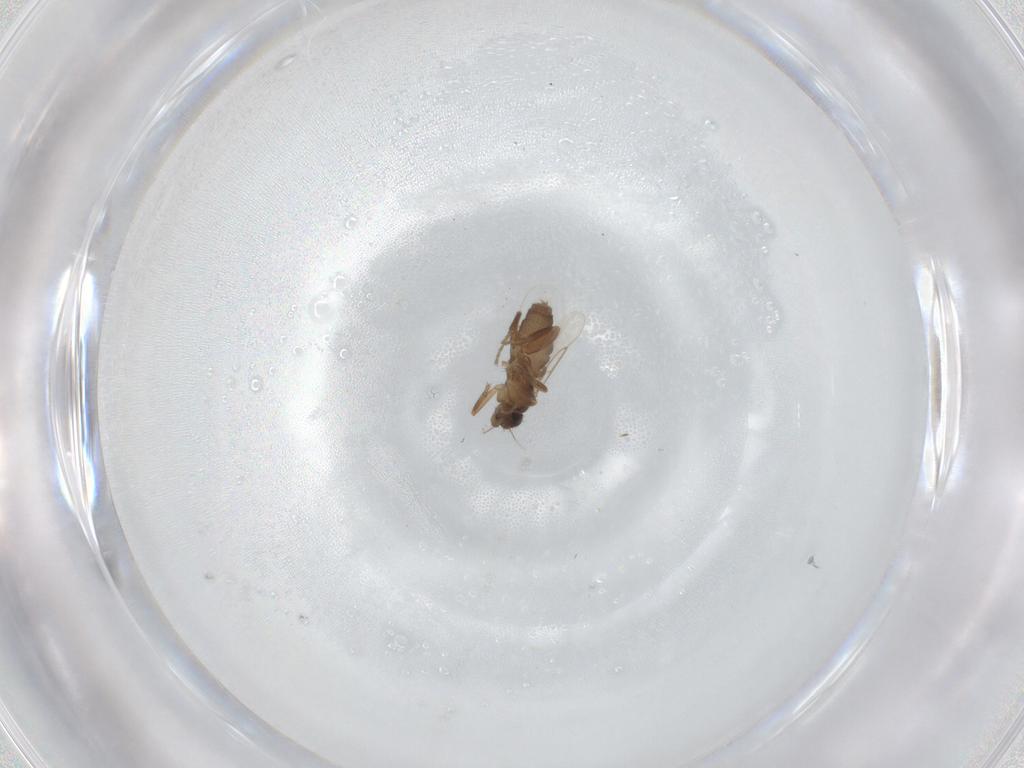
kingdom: Animalia
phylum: Arthropoda
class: Insecta
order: Diptera
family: Phoridae
